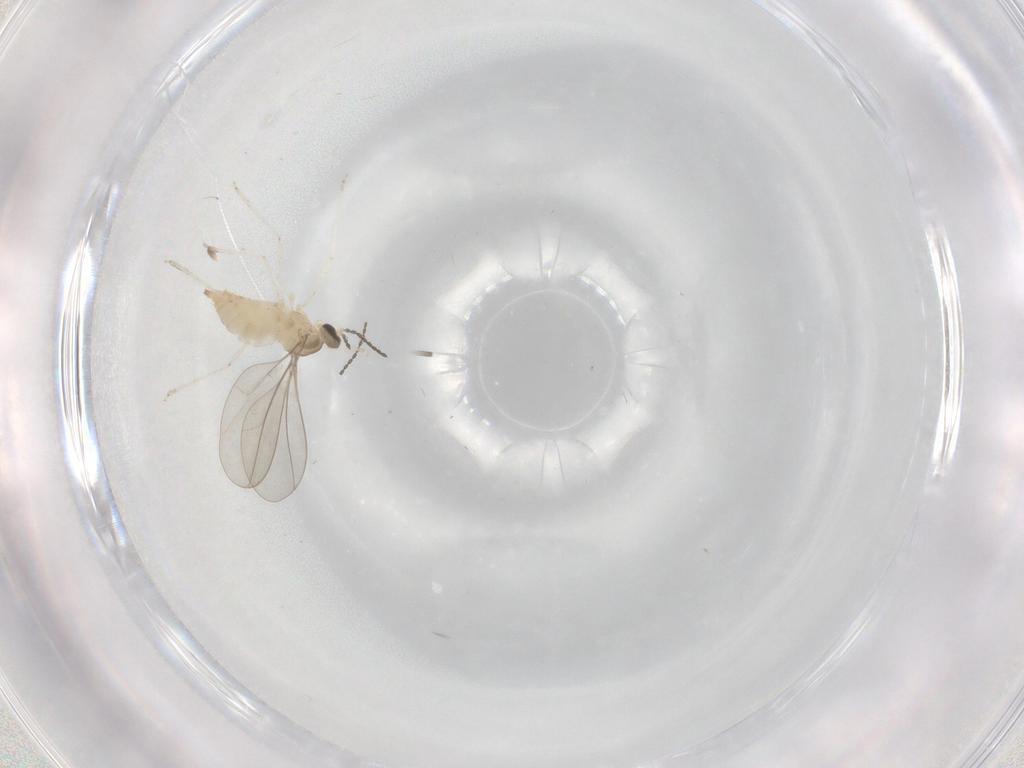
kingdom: Animalia
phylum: Arthropoda
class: Insecta
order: Diptera
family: Cecidomyiidae
